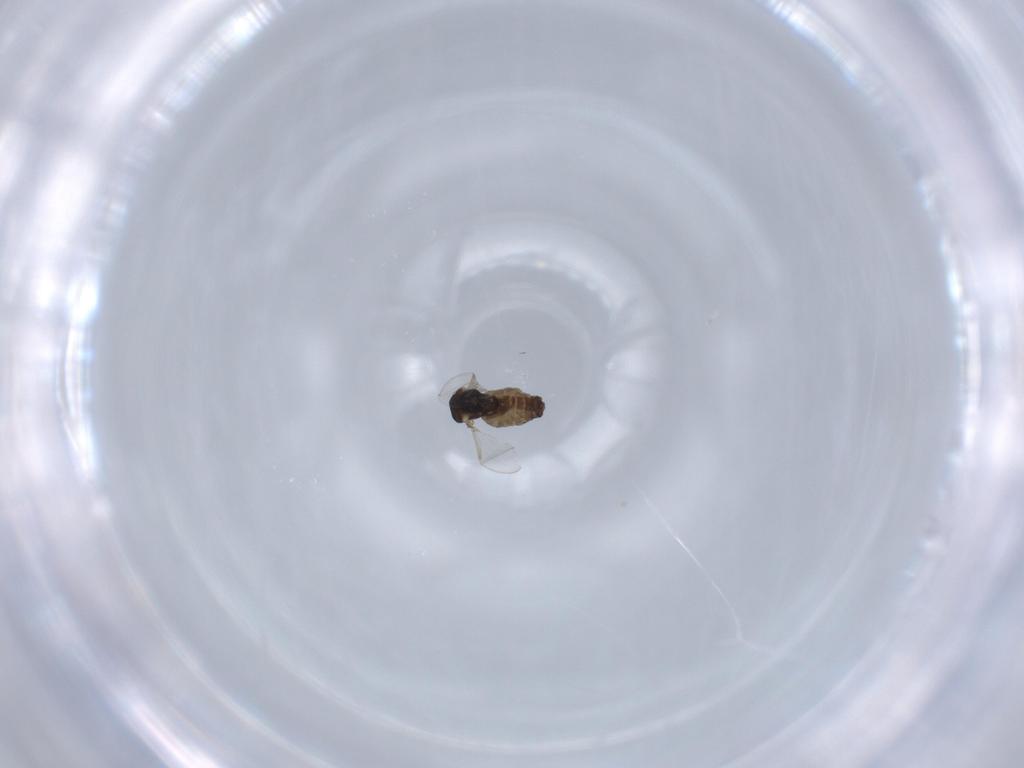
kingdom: Animalia
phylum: Arthropoda
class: Insecta
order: Diptera
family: Ceratopogonidae
